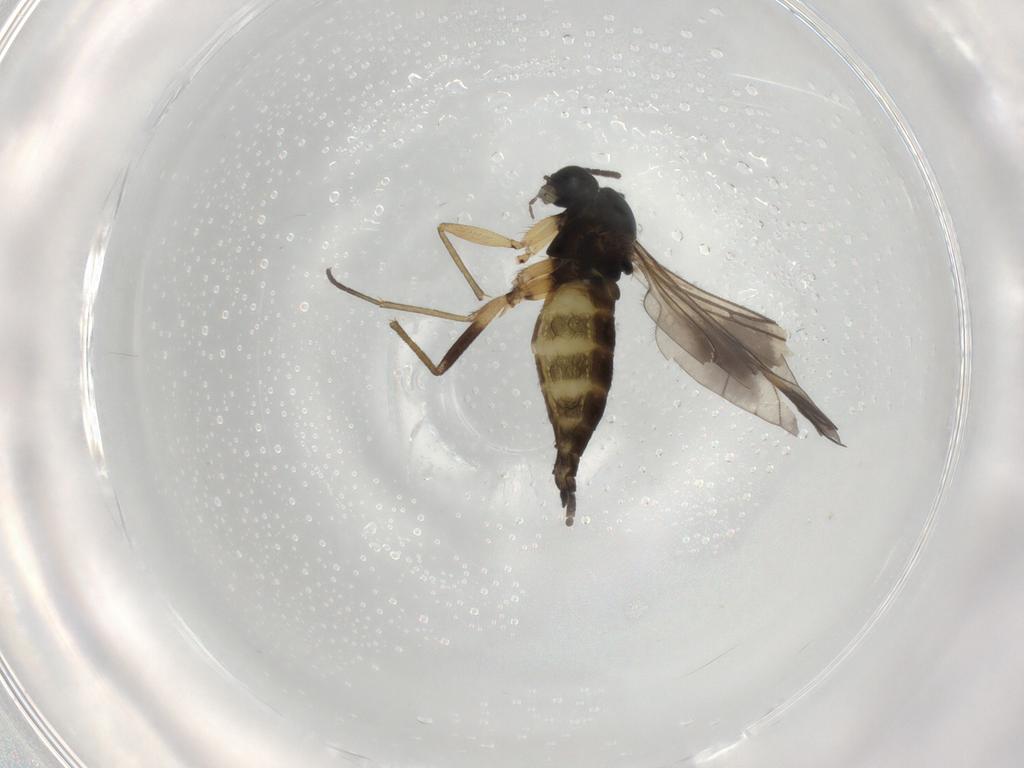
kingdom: Animalia
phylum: Arthropoda
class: Insecta
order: Diptera
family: Sciaridae
